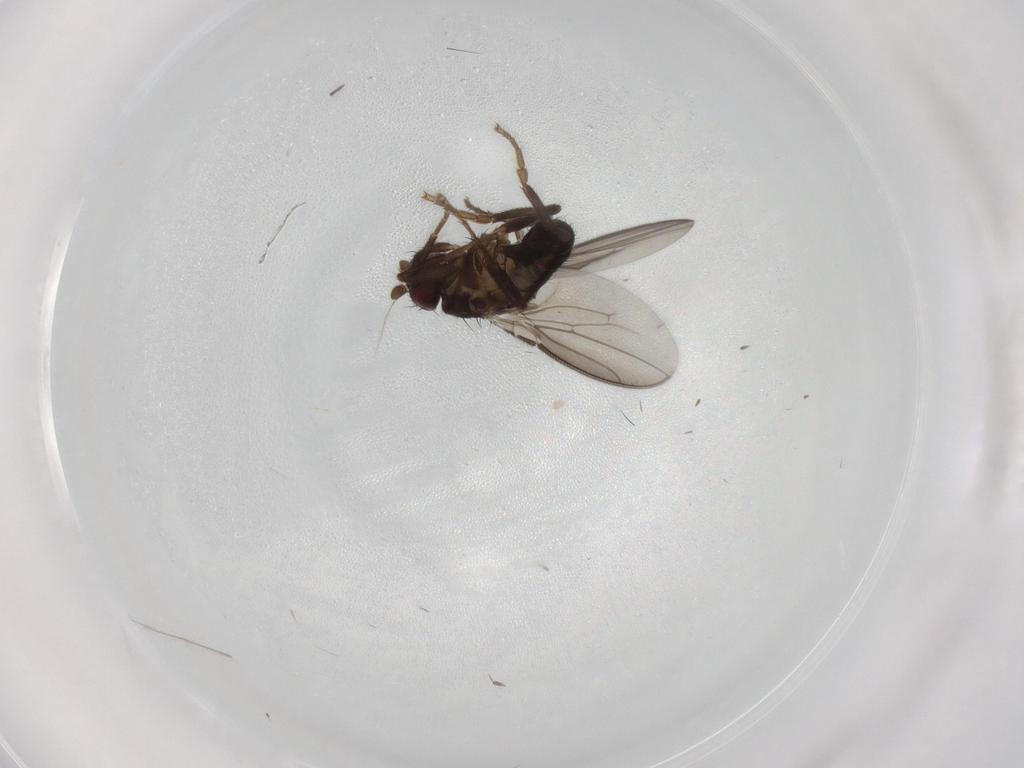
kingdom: Animalia
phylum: Arthropoda
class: Insecta
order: Diptera
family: Sphaeroceridae
